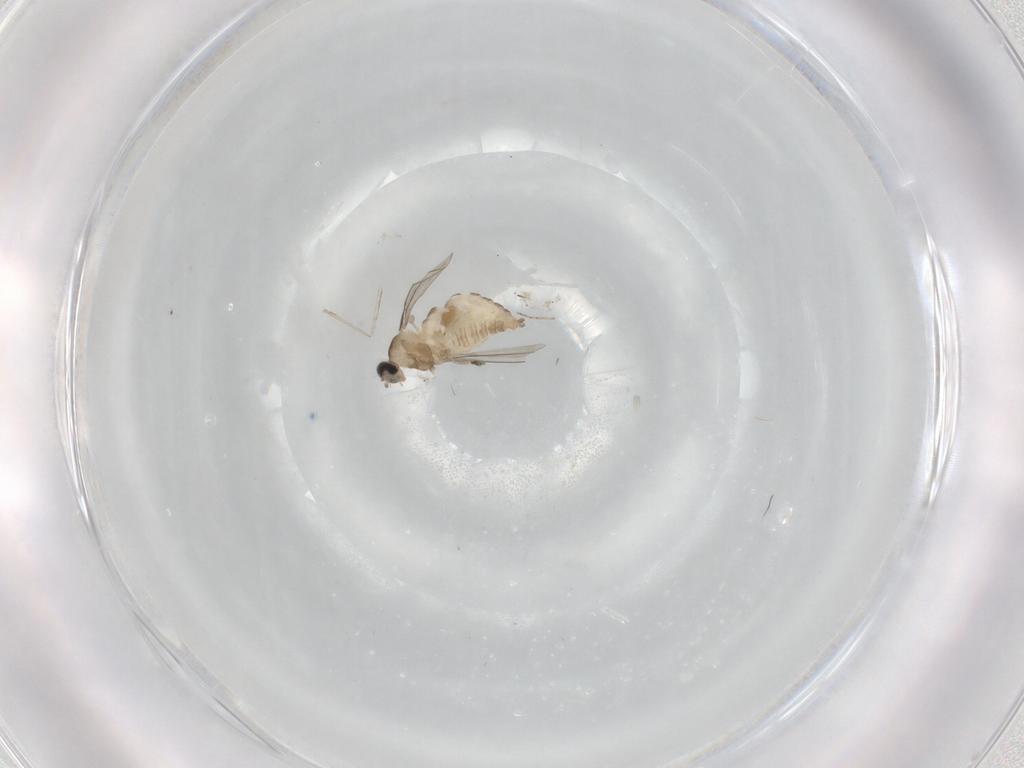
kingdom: Animalia
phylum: Arthropoda
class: Insecta
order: Diptera
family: Cecidomyiidae
